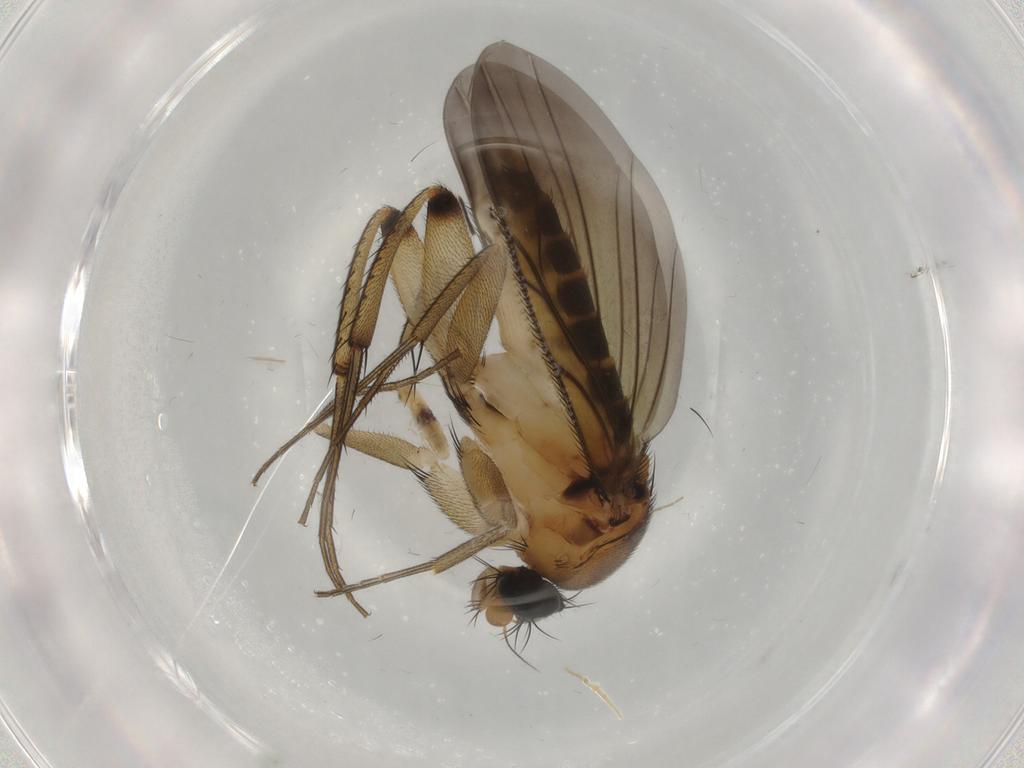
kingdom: Animalia
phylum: Arthropoda
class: Insecta
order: Diptera
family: Phoridae
